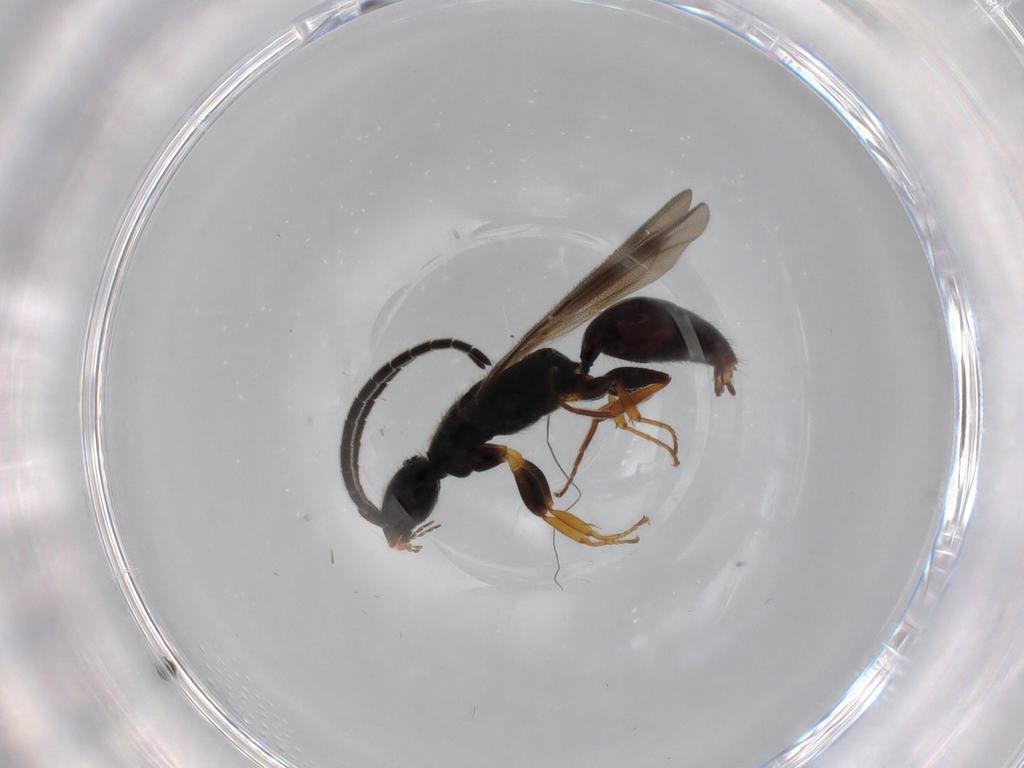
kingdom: Animalia
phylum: Arthropoda
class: Insecta
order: Hymenoptera
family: Bethylidae
